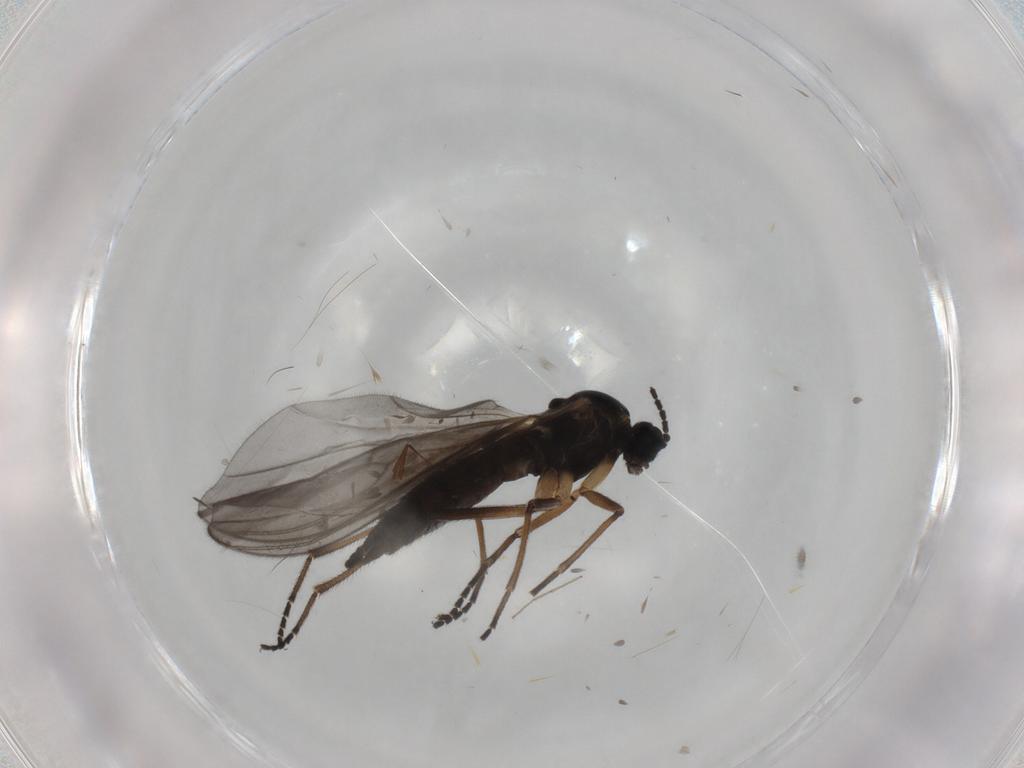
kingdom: Animalia
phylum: Arthropoda
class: Insecta
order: Diptera
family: Sciaridae
